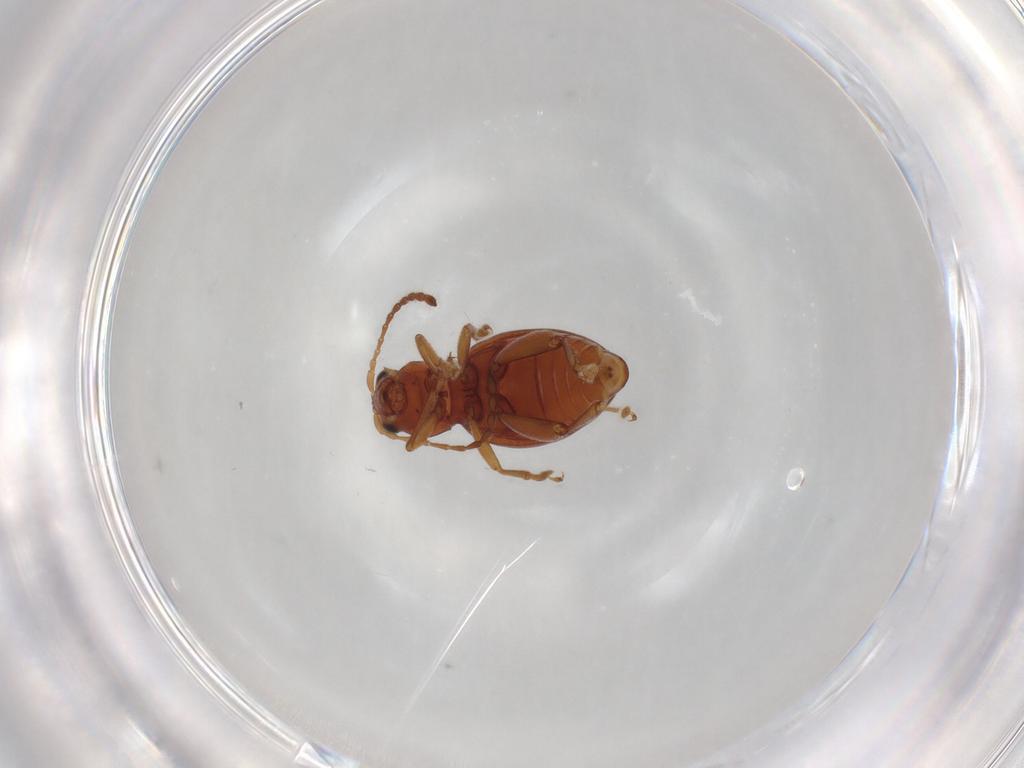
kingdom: Animalia
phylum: Arthropoda
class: Insecta
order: Coleoptera
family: Chrysomelidae
